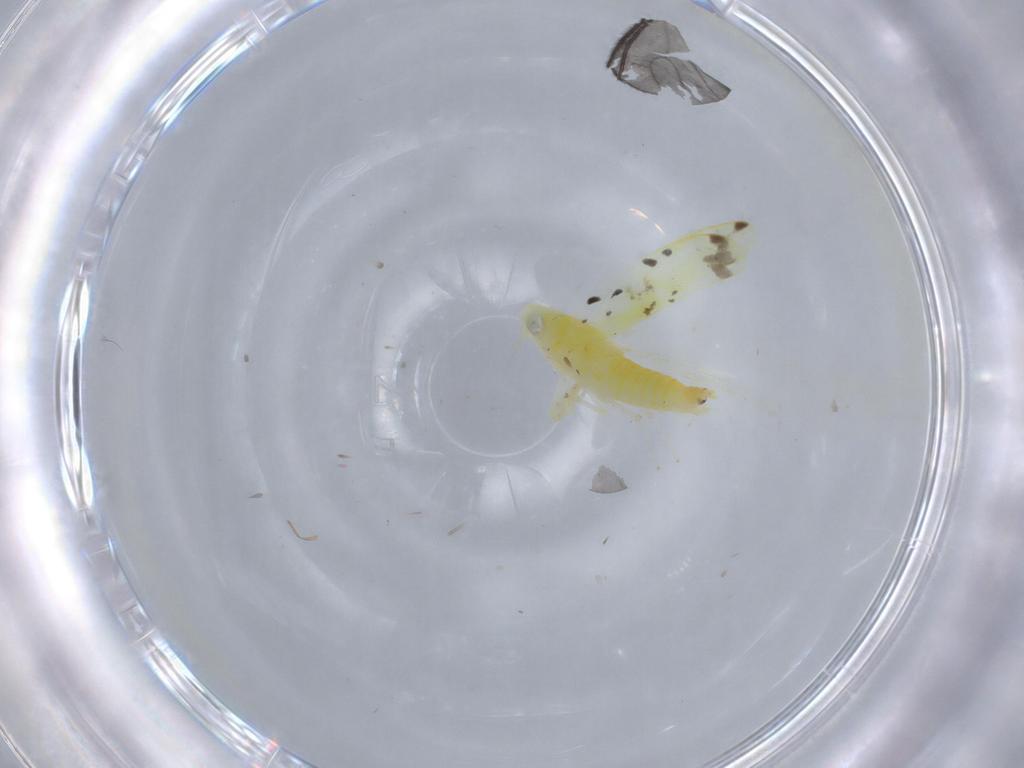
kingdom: Animalia
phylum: Arthropoda
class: Insecta
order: Hemiptera
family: Cicadellidae
